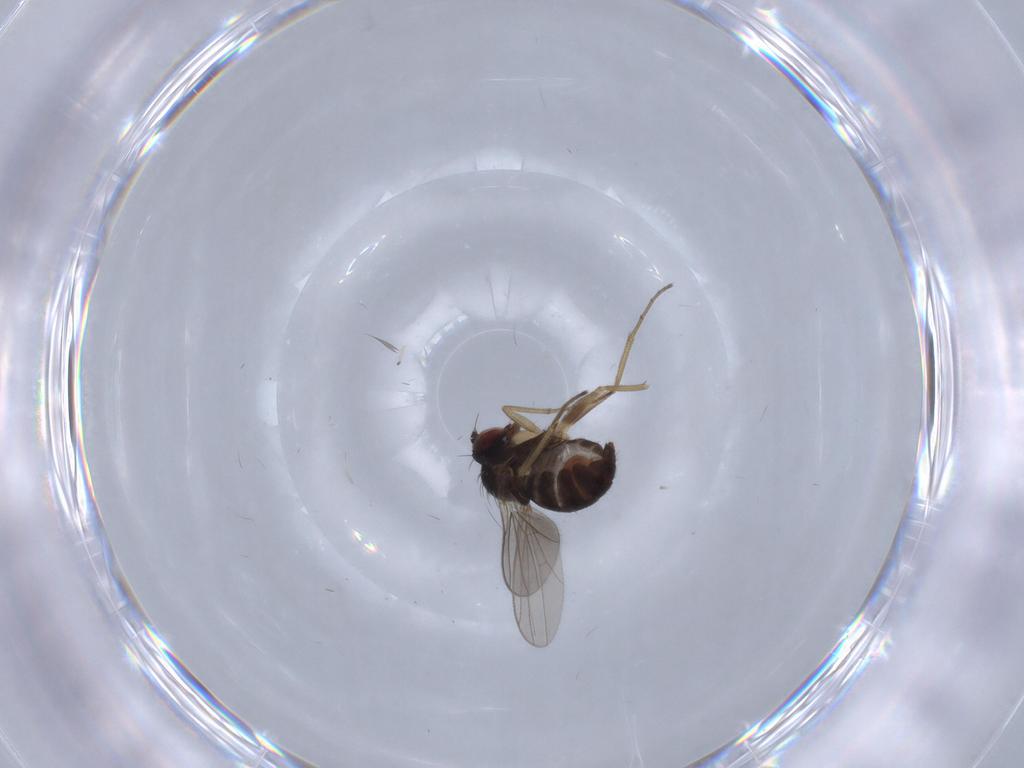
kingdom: Animalia
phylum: Arthropoda
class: Insecta
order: Diptera
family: Dolichopodidae
